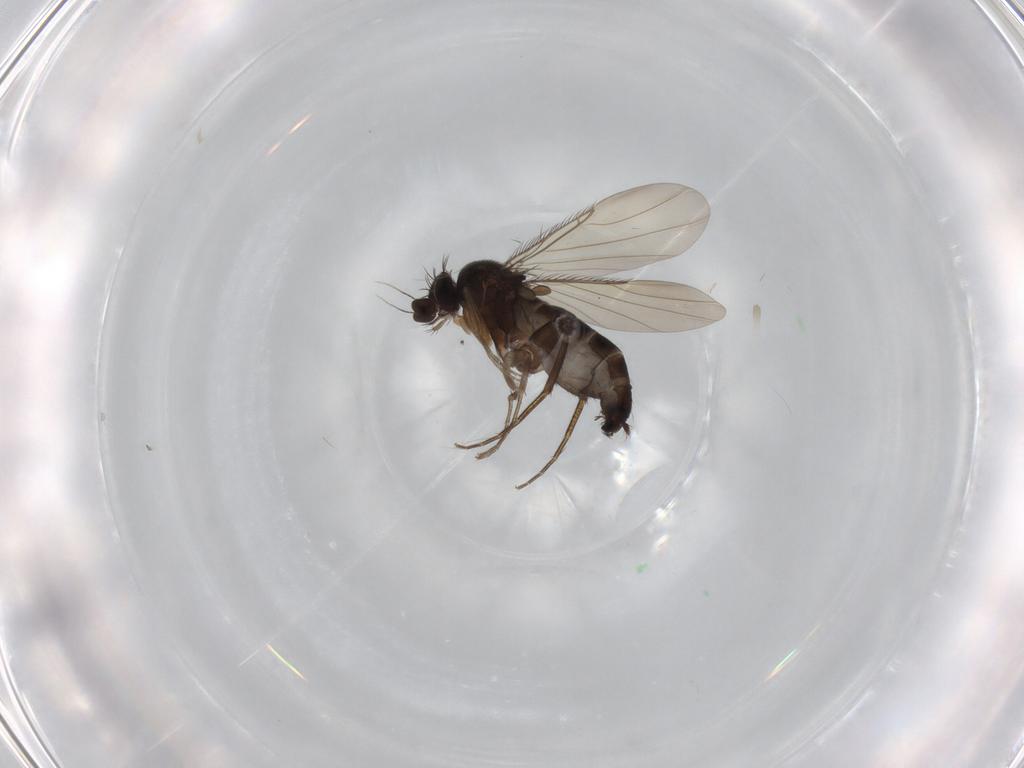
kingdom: Animalia
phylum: Arthropoda
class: Insecta
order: Diptera
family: Phoridae
